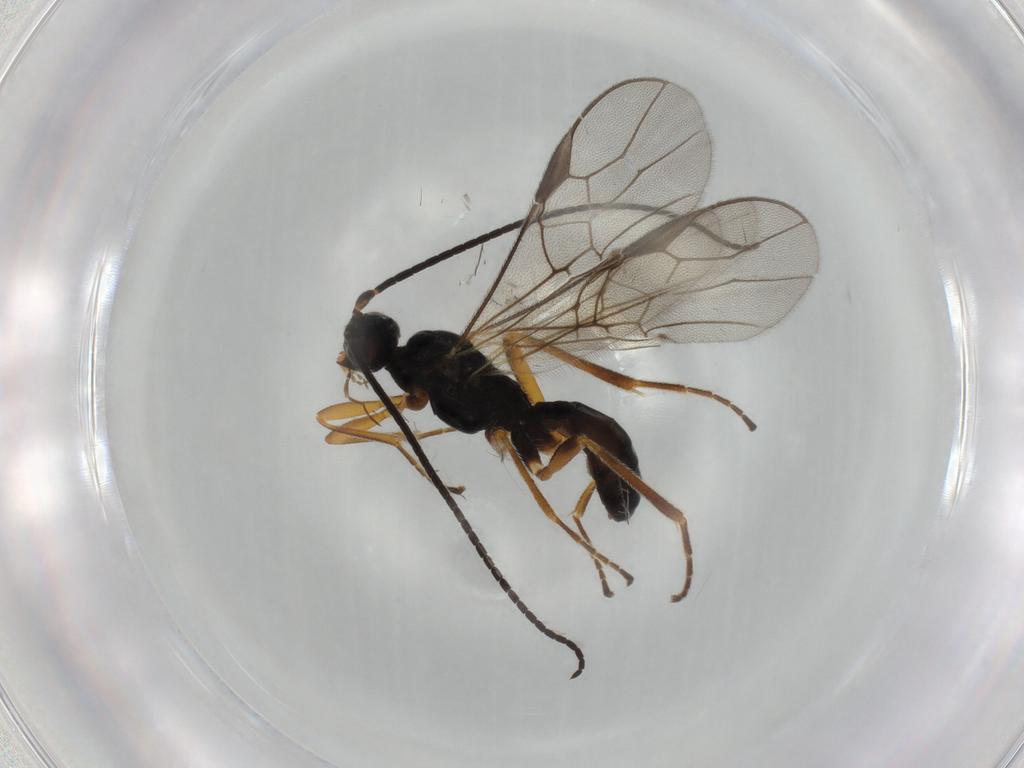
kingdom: Animalia
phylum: Arthropoda
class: Insecta
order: Hymenoptera
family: Braconidae
